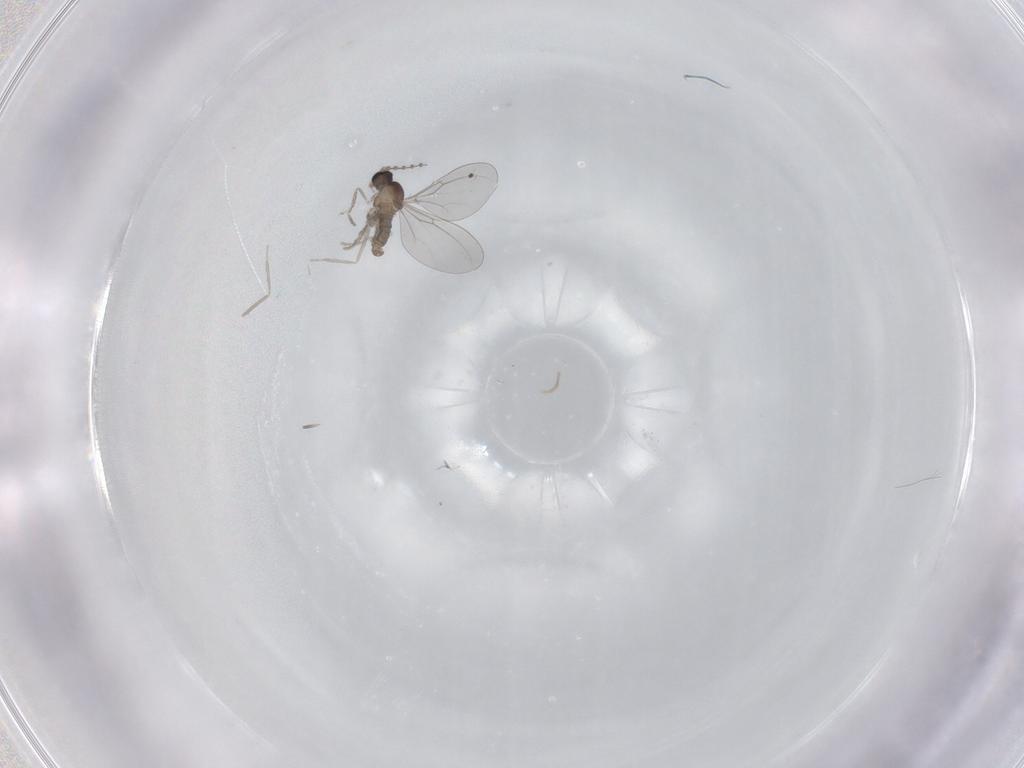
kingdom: Animalia
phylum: Arthropoda
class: Insecta
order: Diptera
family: Cecidomyiidae
